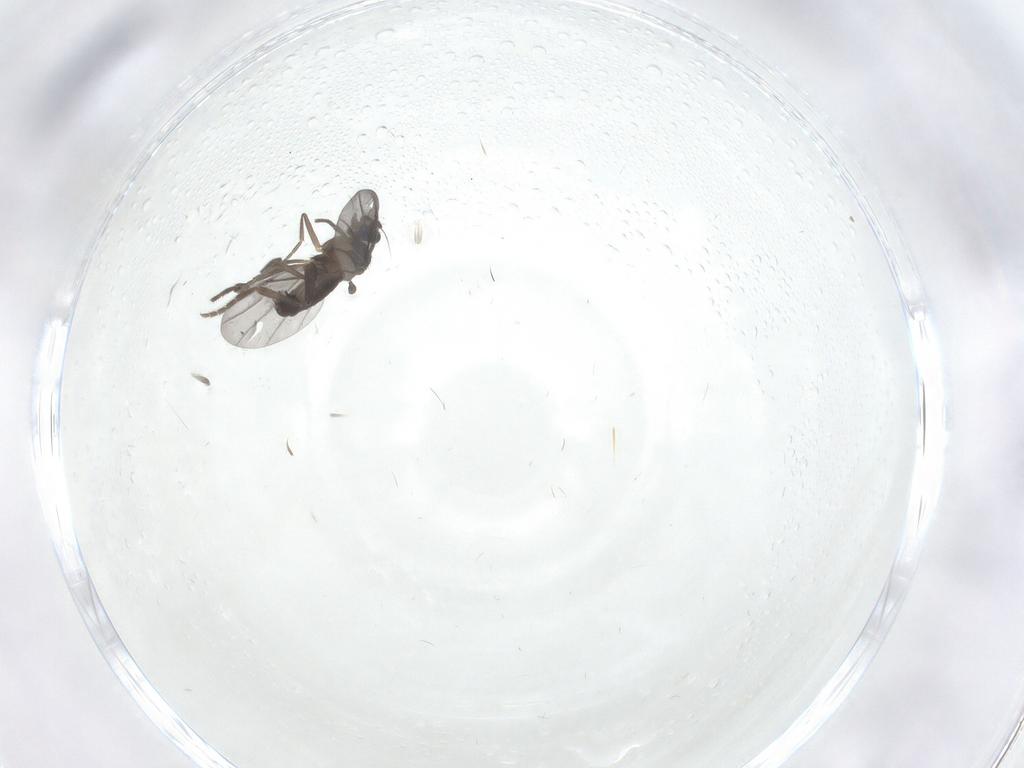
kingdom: Animalia
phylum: Arthropoda
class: Insecta
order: Diptera
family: Phoridae
